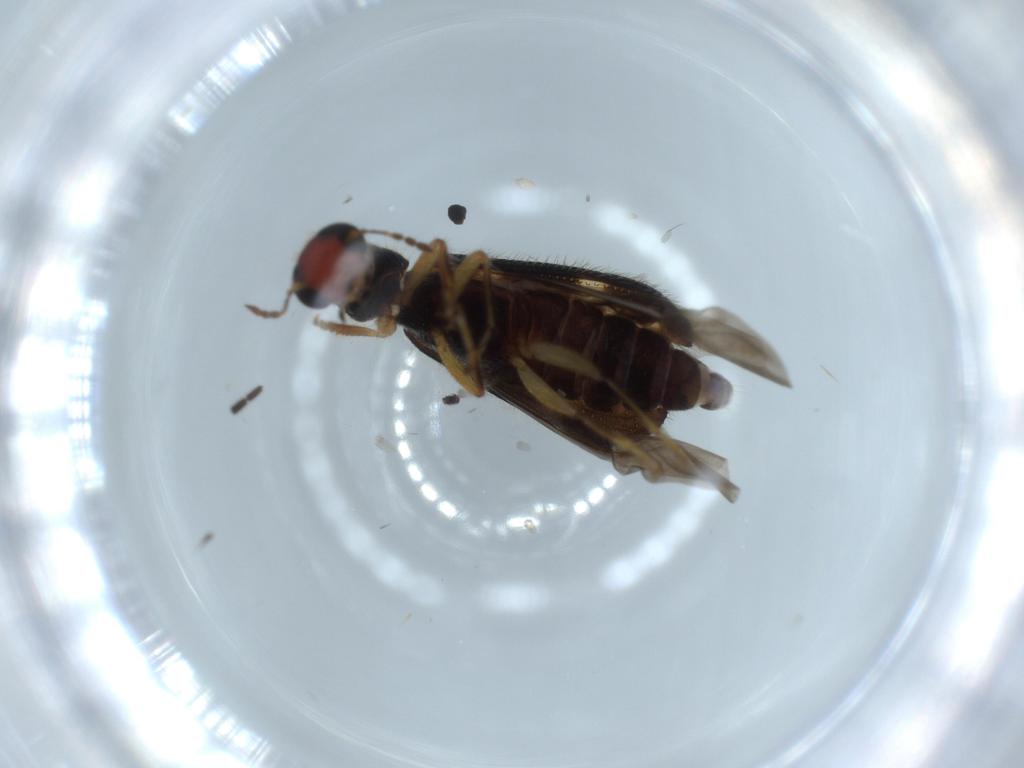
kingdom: Animalia
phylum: Arthropoda
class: Insecta
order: Coleoptera
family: Chrysomelidae
